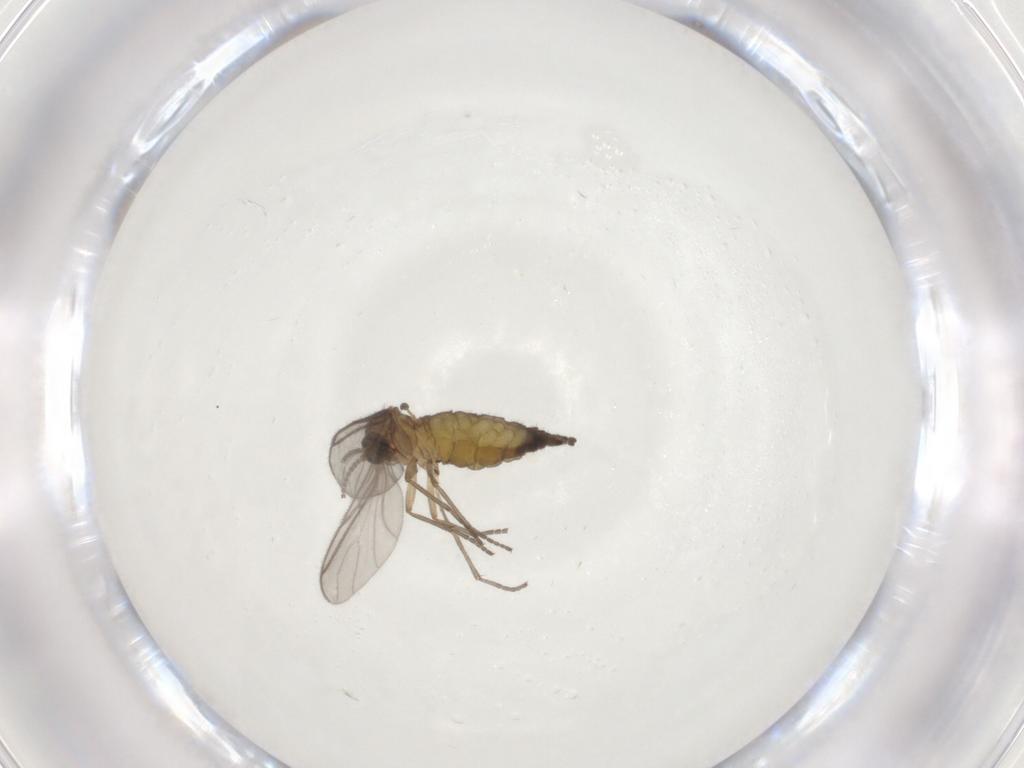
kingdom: Animalia
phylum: Arthropoda
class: Insecta
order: Diptera
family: Sciaridae
